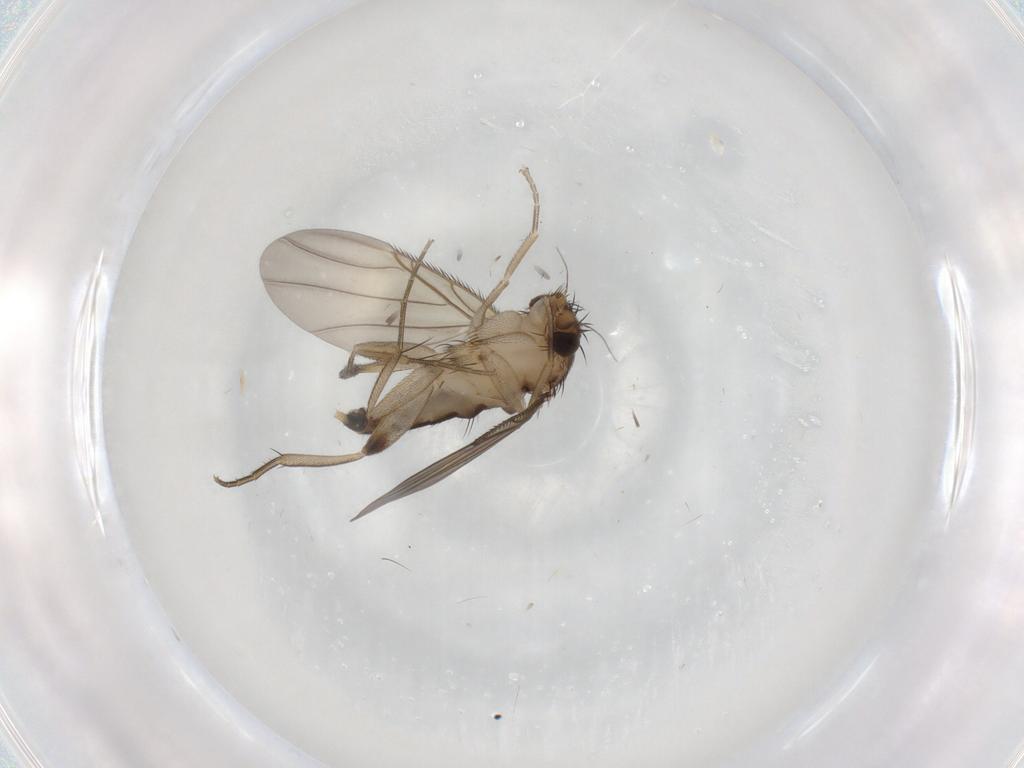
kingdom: Animalia
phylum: Arthropoda
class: Insecta
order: Diptera
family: Phoridae
